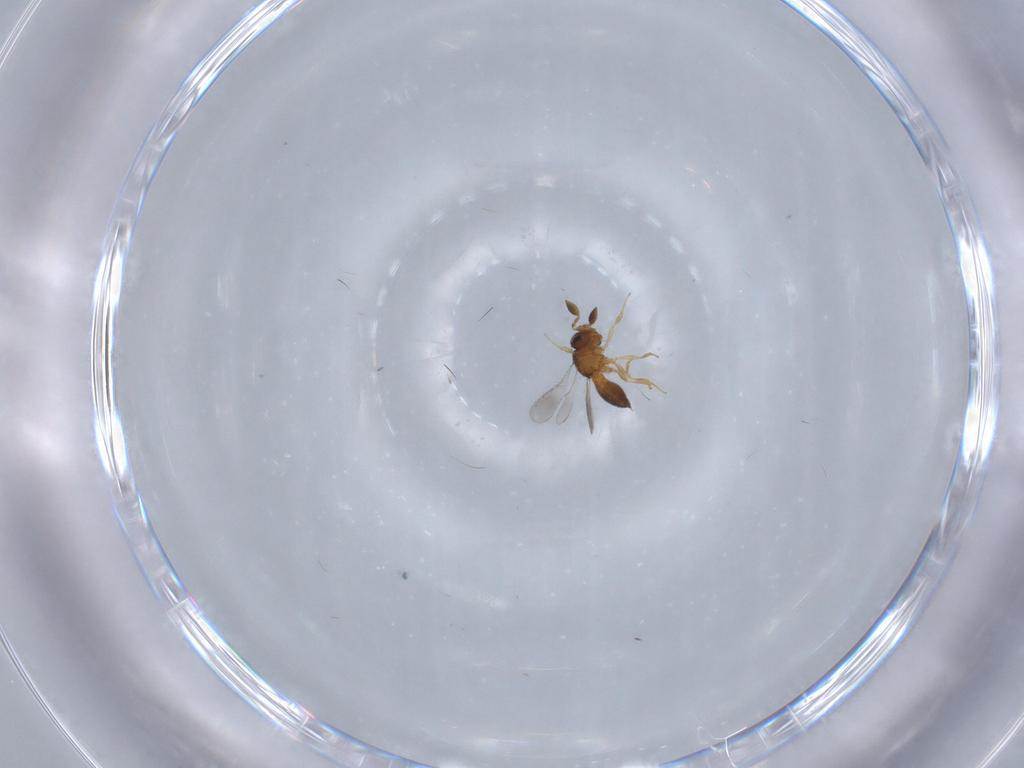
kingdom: Animalia
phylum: Arthropoda
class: Insecta
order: Hymenoptera
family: Scelionidae
